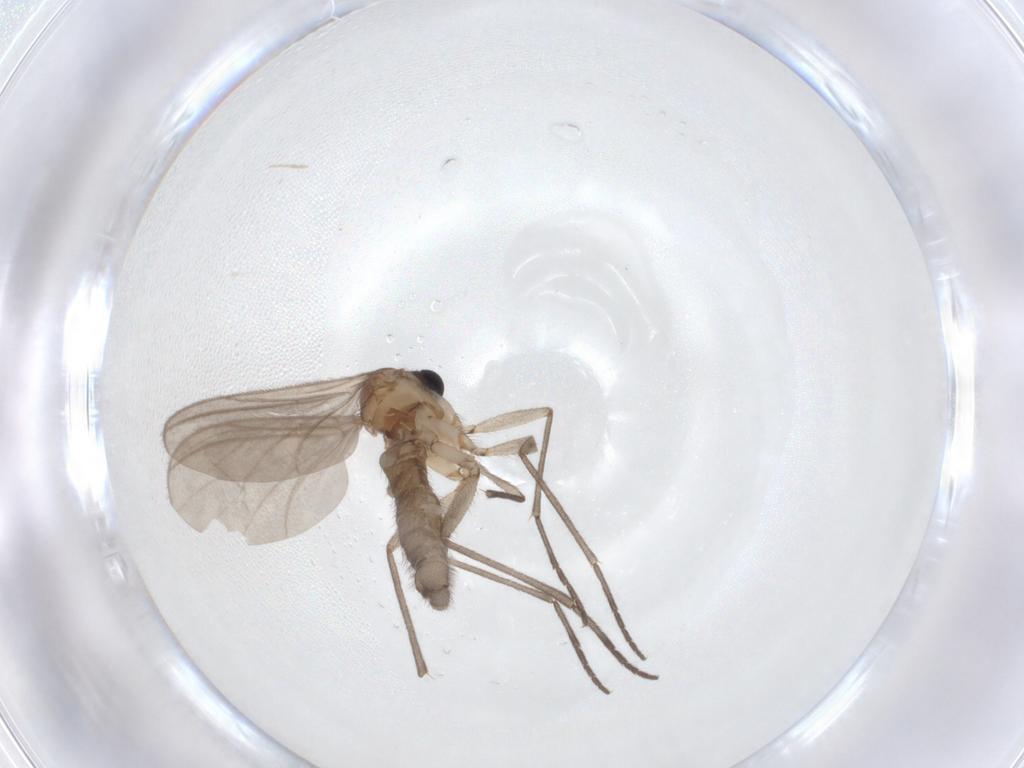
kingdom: Animalia
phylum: Arthropoda
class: Insecta
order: Diptera
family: Sciaridae
